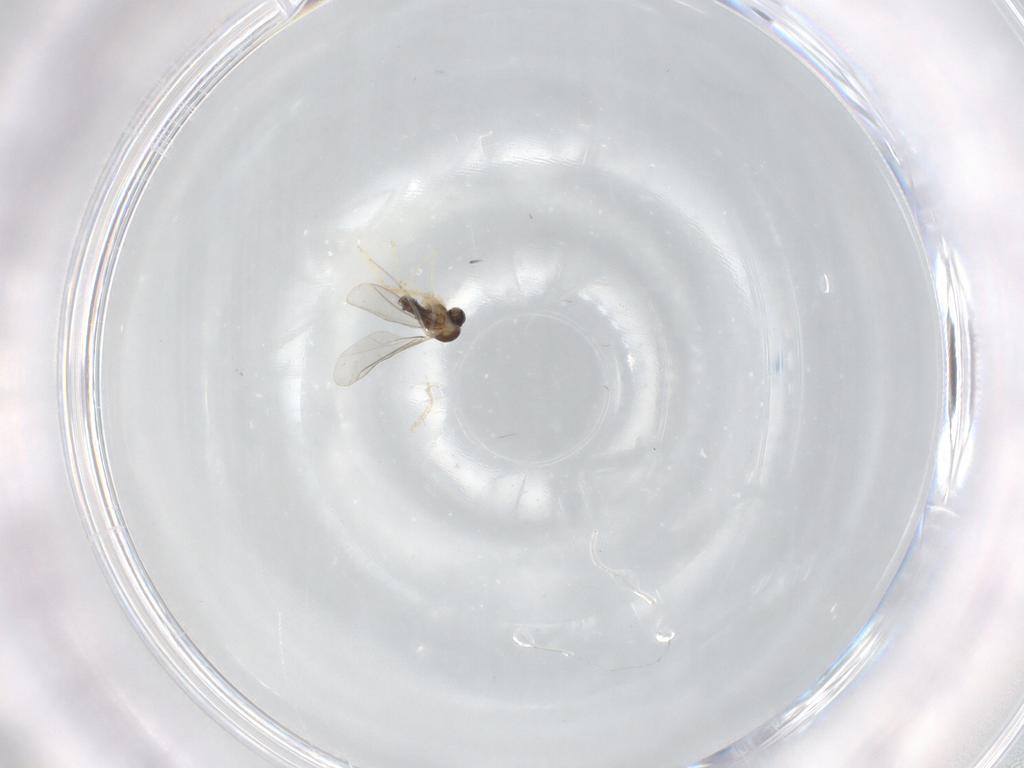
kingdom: Animalia
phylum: Arthropoda
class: Insecta
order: Diptera
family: Cecidomyiidae
